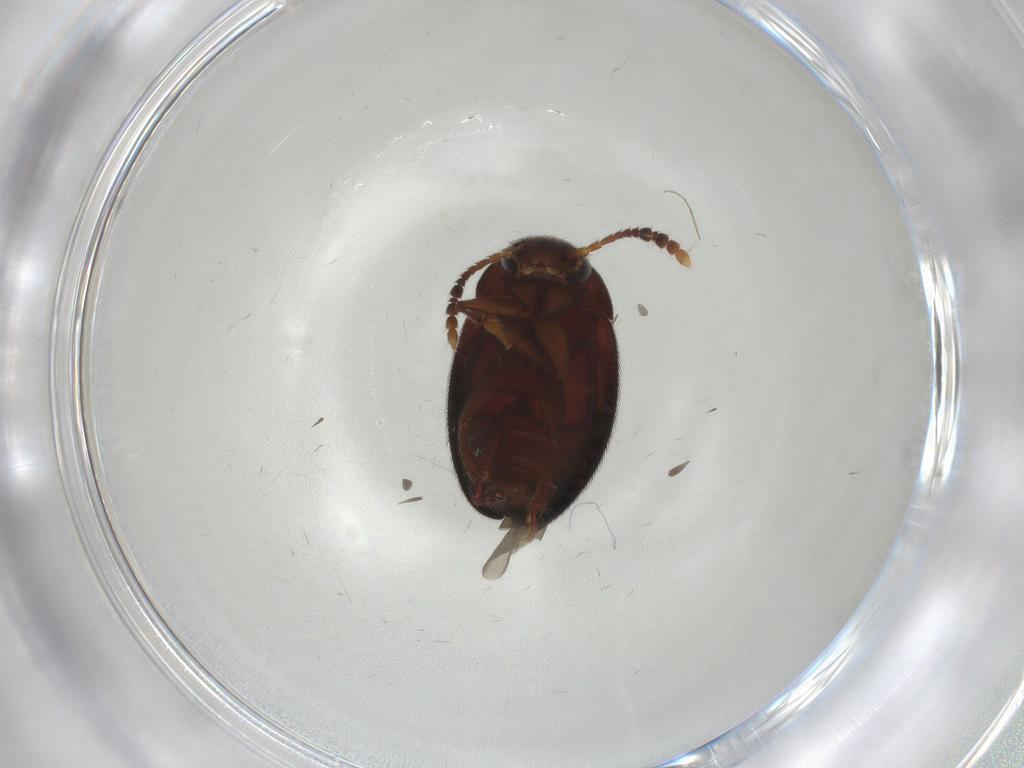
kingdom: Animalia
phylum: Arthropoda
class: Insecta
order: Coleoptera
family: Leiodidae
